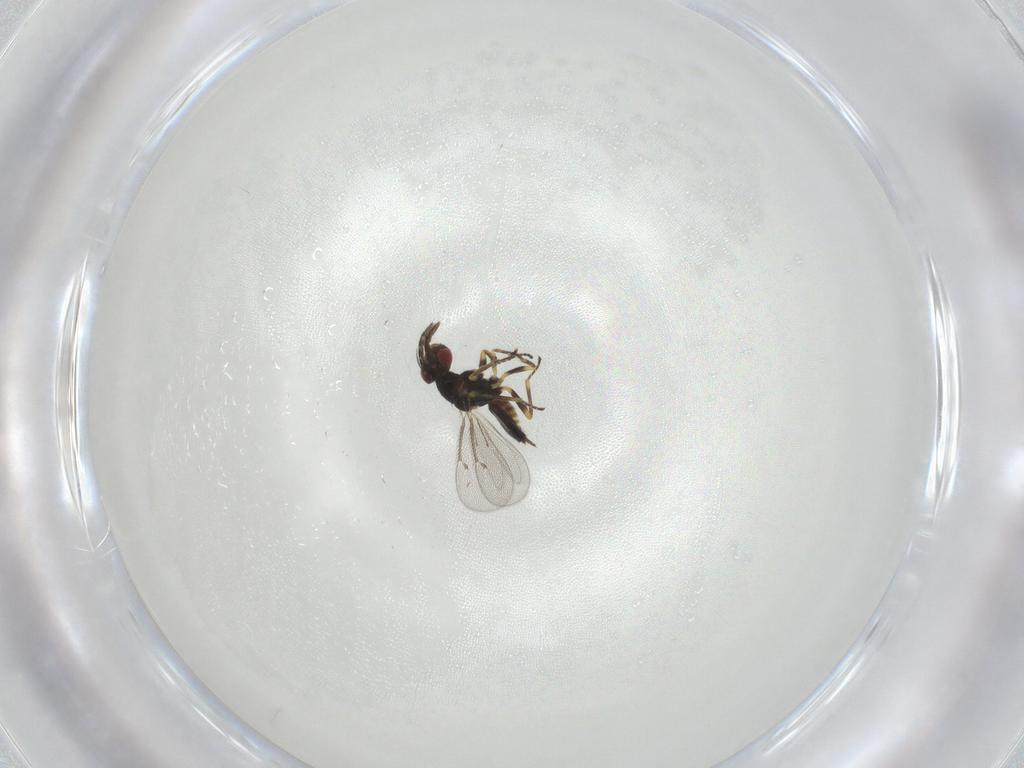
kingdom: Animalia
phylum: Arthropoda
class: Insecta
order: Hymenoptera
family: Eulophidae
